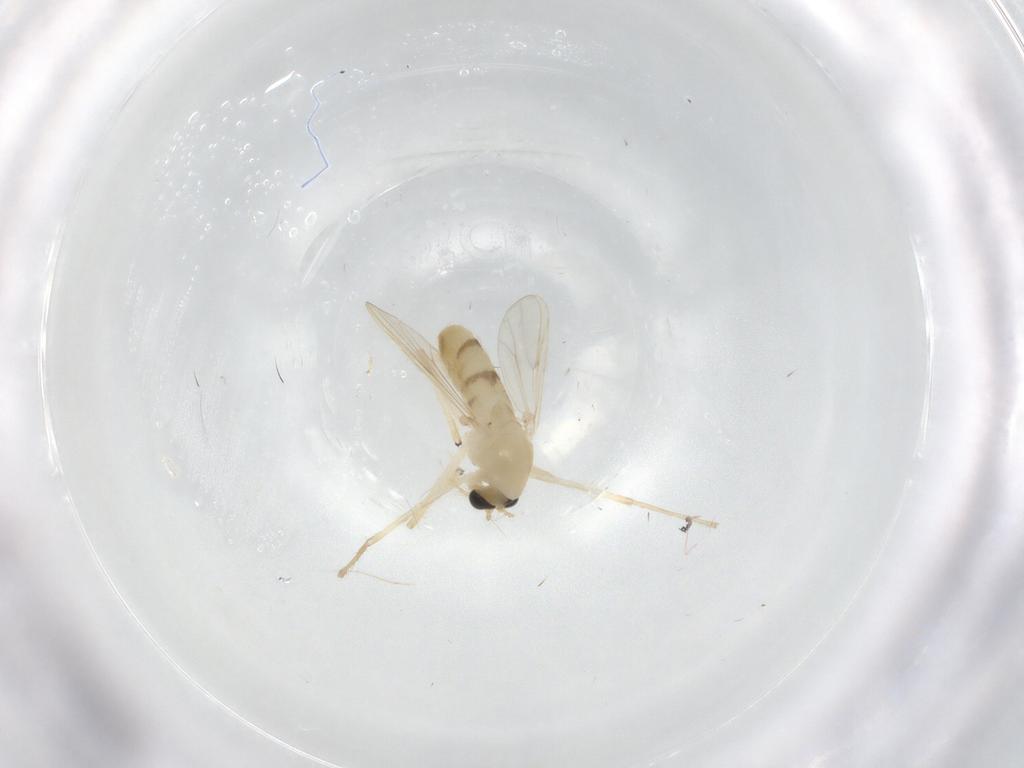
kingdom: Animalia
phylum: Arthropoda
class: Insecta
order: Diptera
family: Chironomidae
